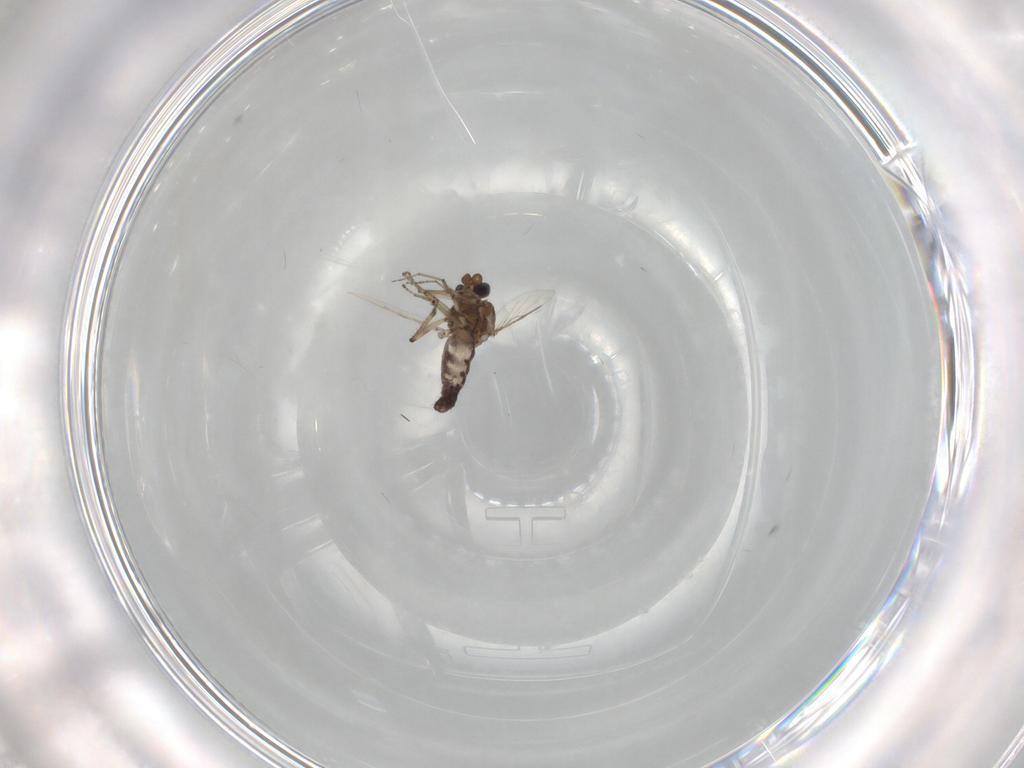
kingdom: Animalia
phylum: Arthropoda
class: Insecta
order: Diptera
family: Ceratopogonidae
